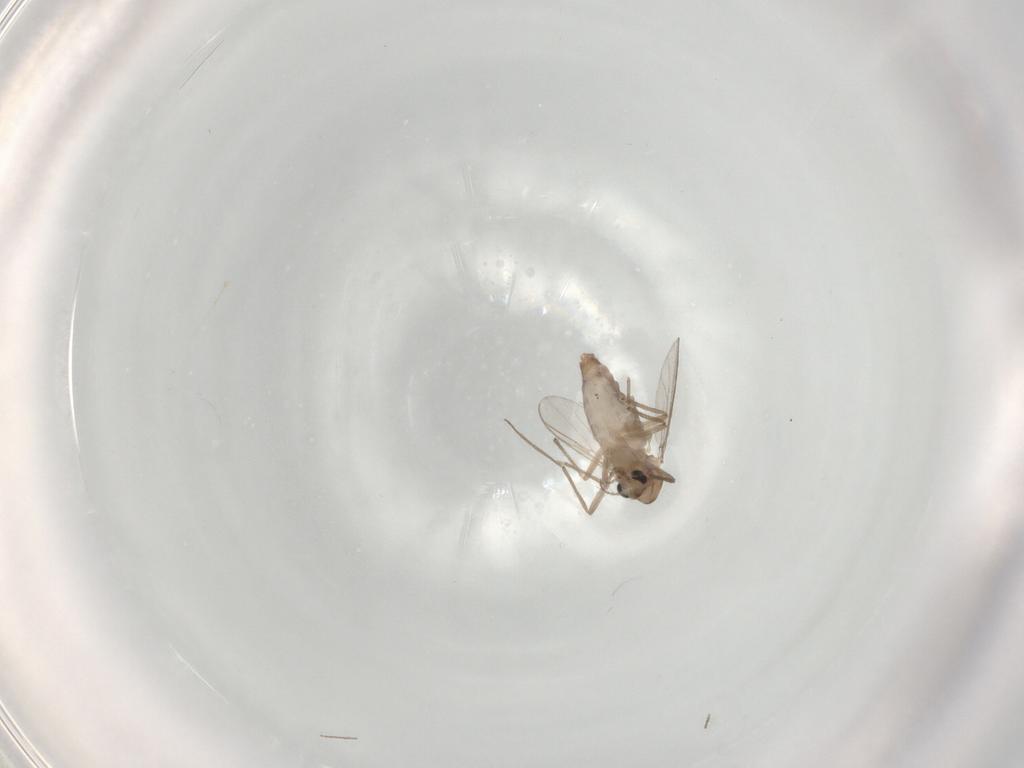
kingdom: Animalia
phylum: Arthropoda
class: Insecta
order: Diptera
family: Chironomidae
